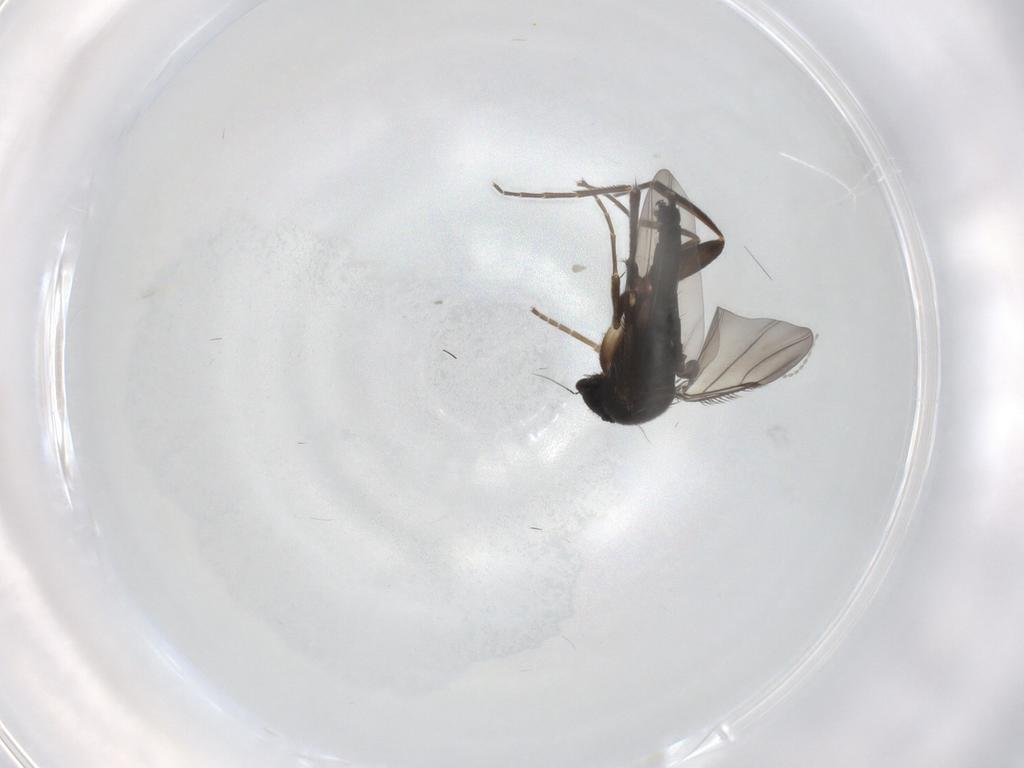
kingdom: Animalia
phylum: Arthropoda
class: Insecta
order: Diptera
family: Phoridae
